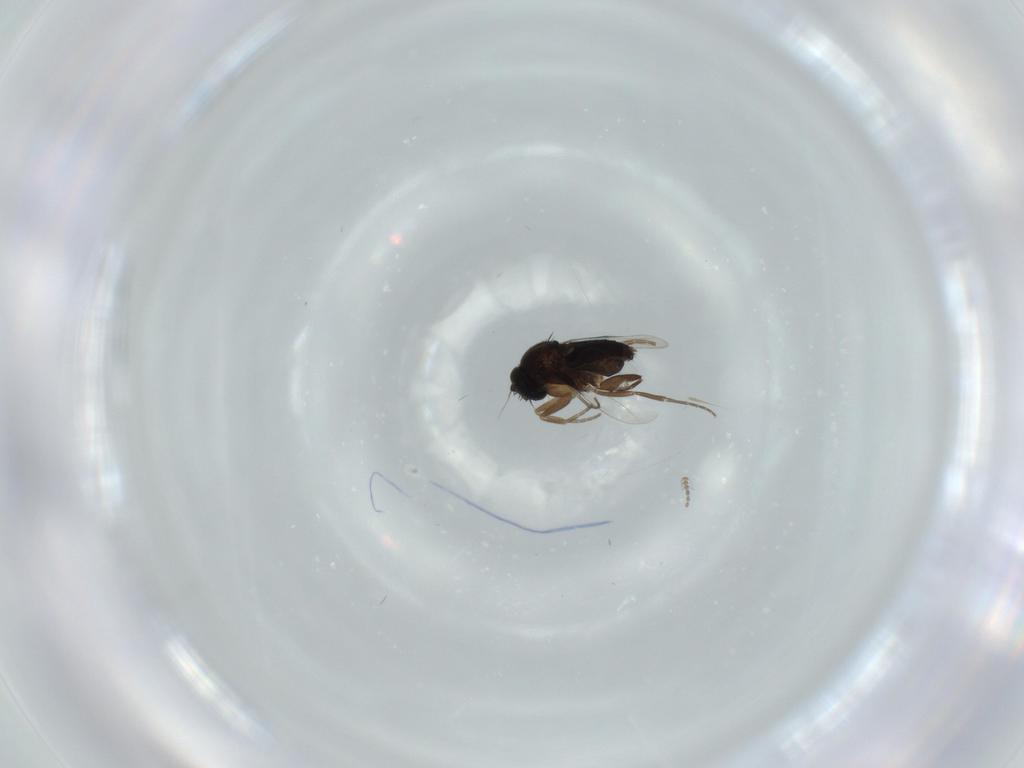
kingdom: Animalia
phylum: Arthropoda
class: Insecta
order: Diptera
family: Phoridae
